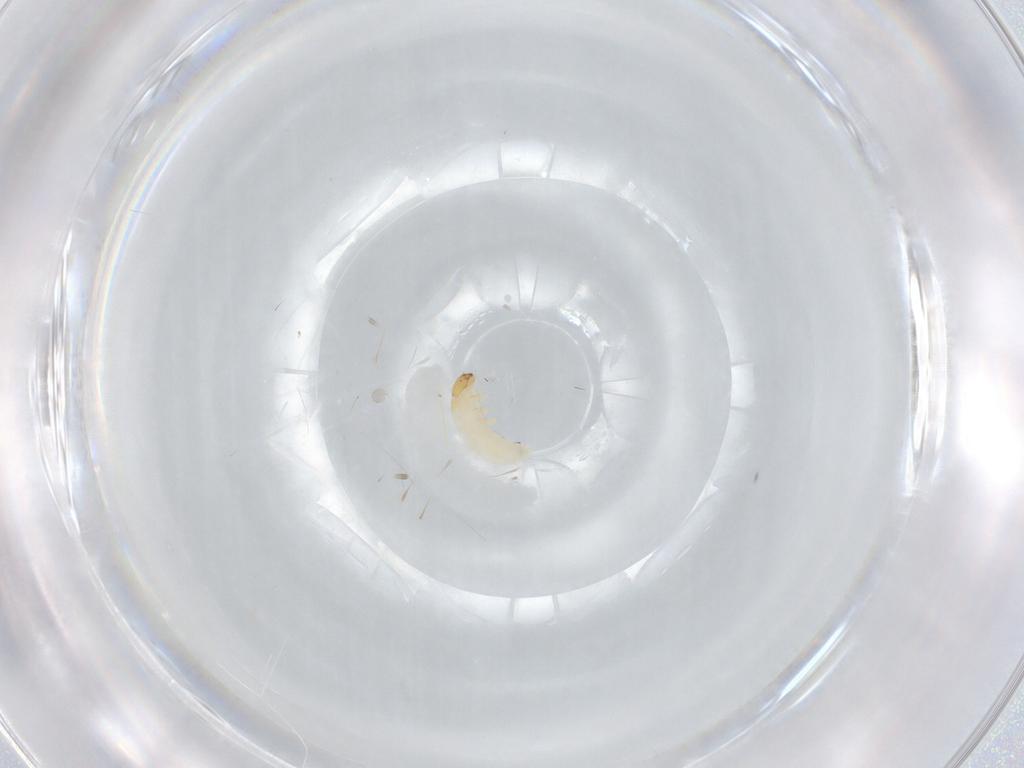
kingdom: Animalia
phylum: Arthropoda
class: Insecta
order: Coleoptera
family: Chrysomelidae
